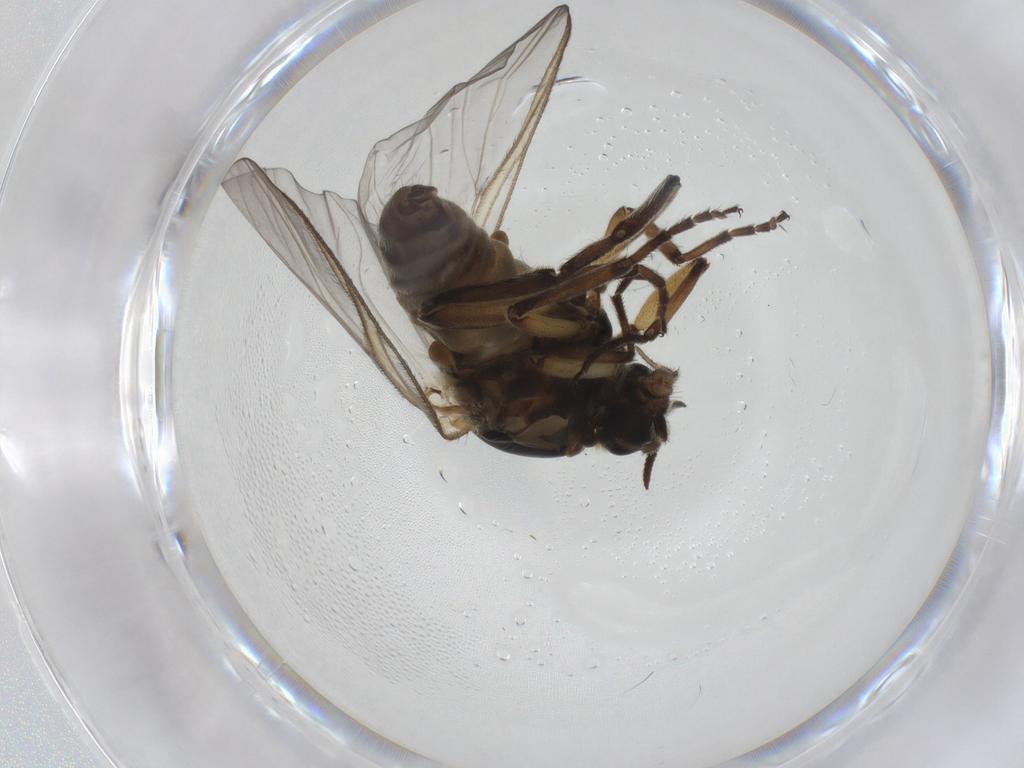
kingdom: Animalia
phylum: Arthropoda
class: Insecta
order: Diptera
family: Simuliidae
